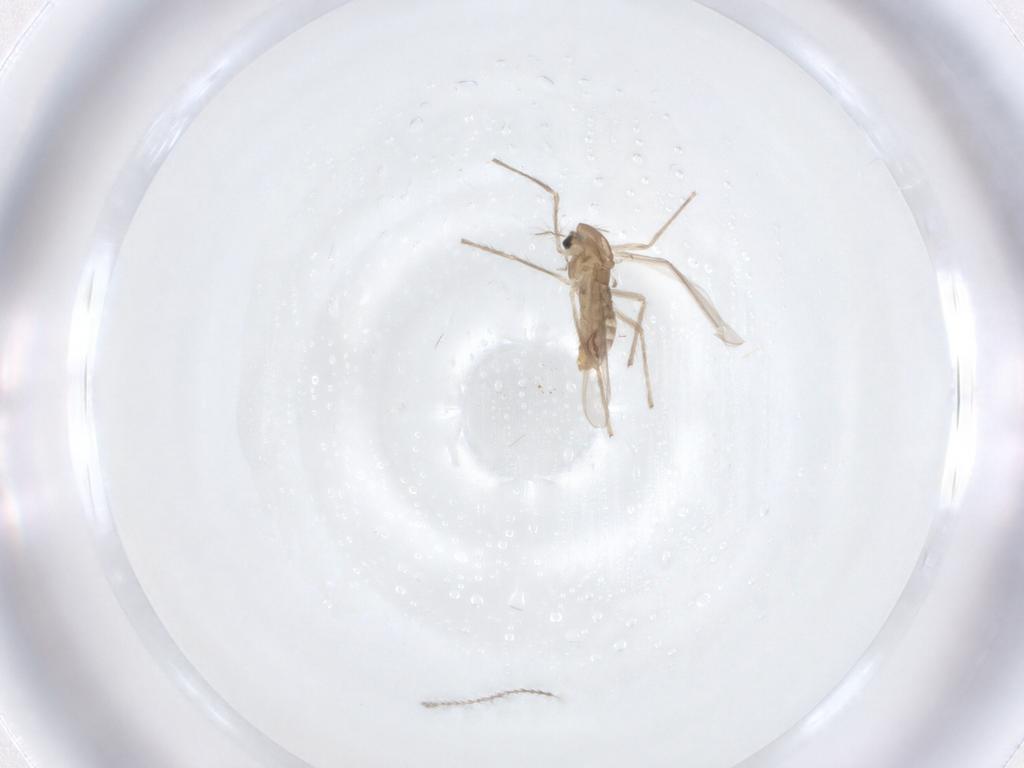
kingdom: Animalia
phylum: Arthropoda
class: Insecta
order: Diptera
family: Chironomidae
